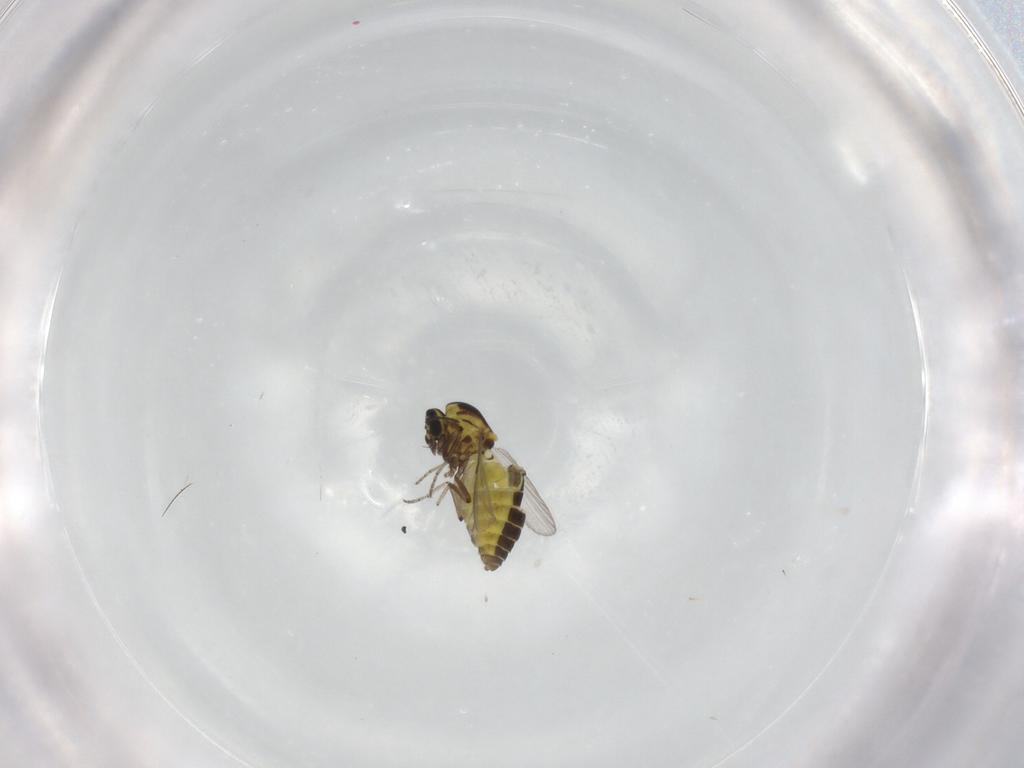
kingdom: Animalia
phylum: Arthropoda
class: Insecta
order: Diptera
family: Ceratopogonidae
